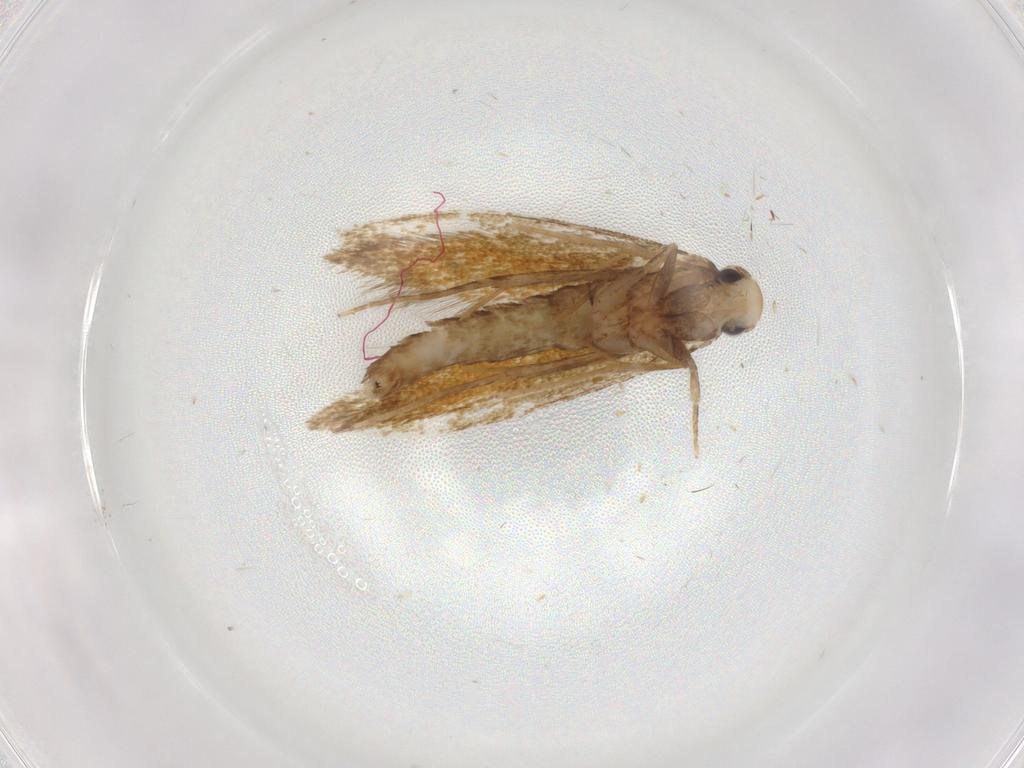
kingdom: Animalia
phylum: Arthropoda
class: Insecta
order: Lepidoptera
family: Tineidae
